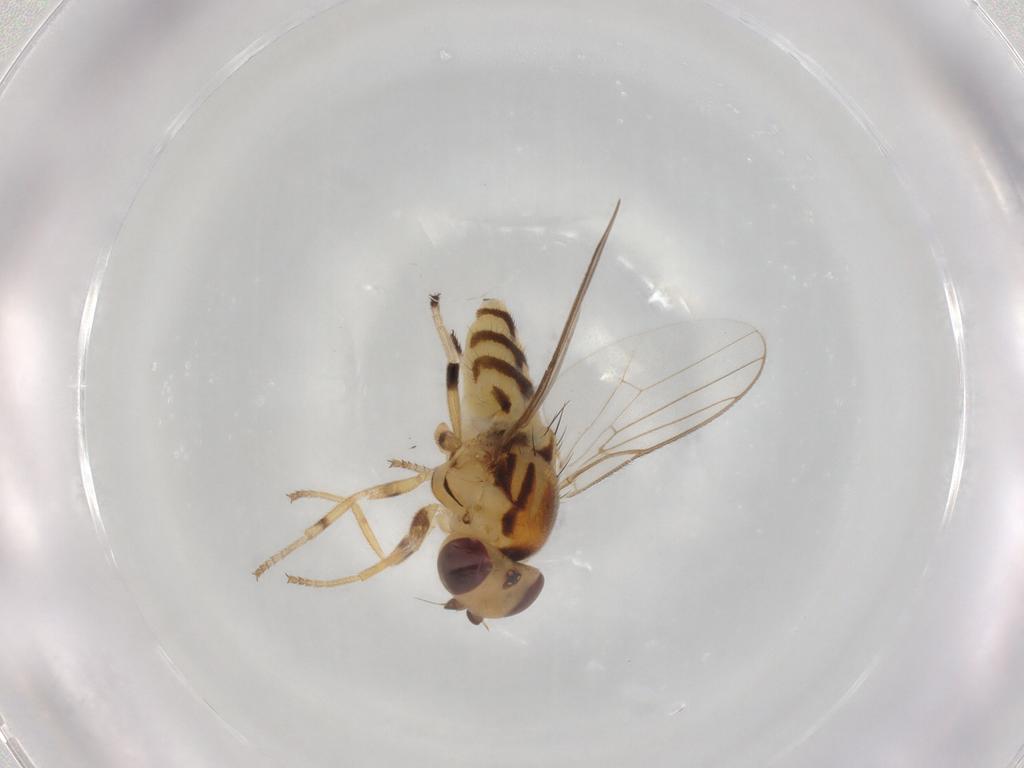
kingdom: Animalia
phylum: Arthropoda
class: Insecta
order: Diptera
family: Chloropidae
